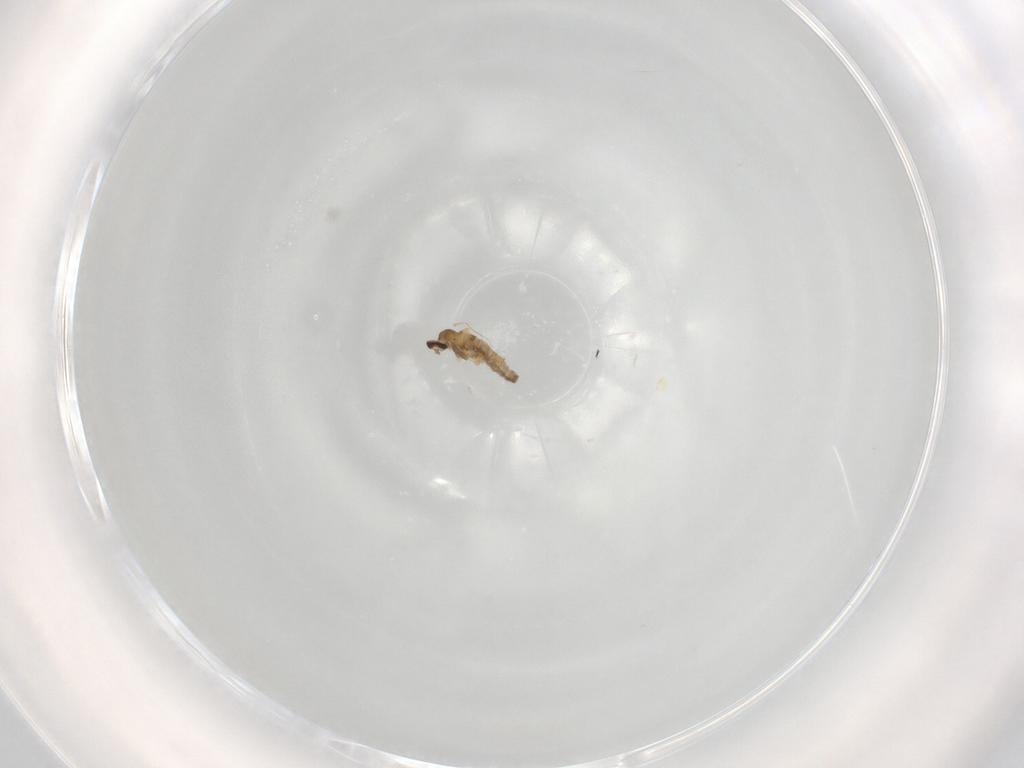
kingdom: Animalia
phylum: Arthropoda
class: Insecta
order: Diptera
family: Cecidomyiidae
